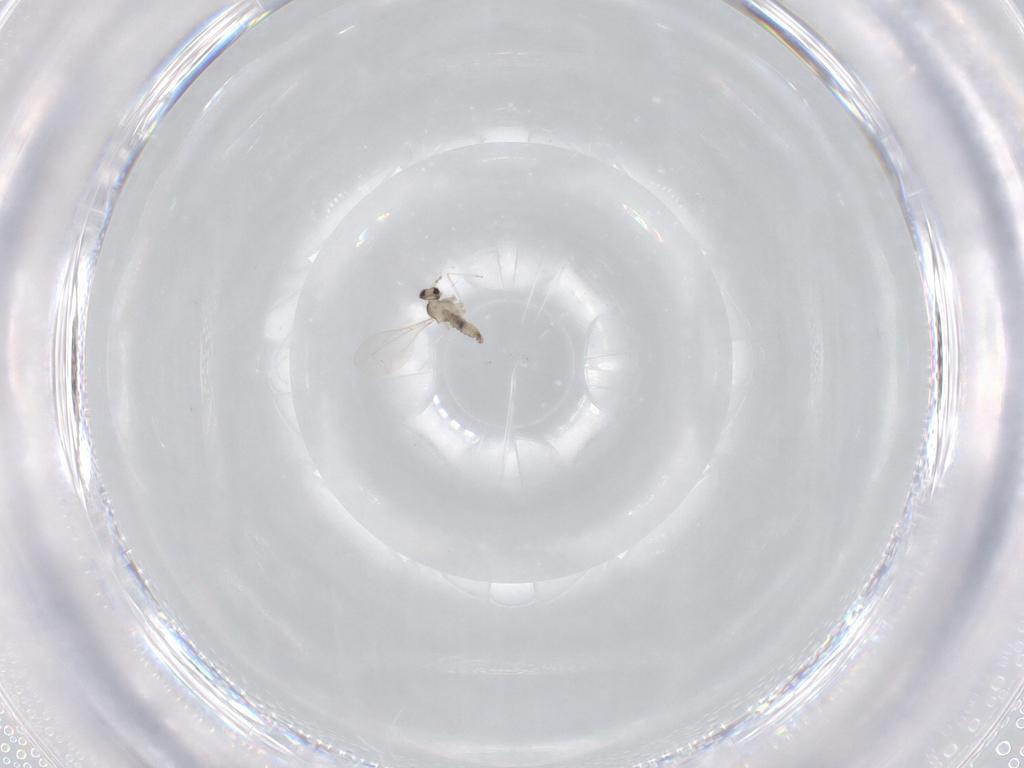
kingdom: Animalia
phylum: Arthropoda
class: Insecta
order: Diptera
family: Cecidomyiidae
